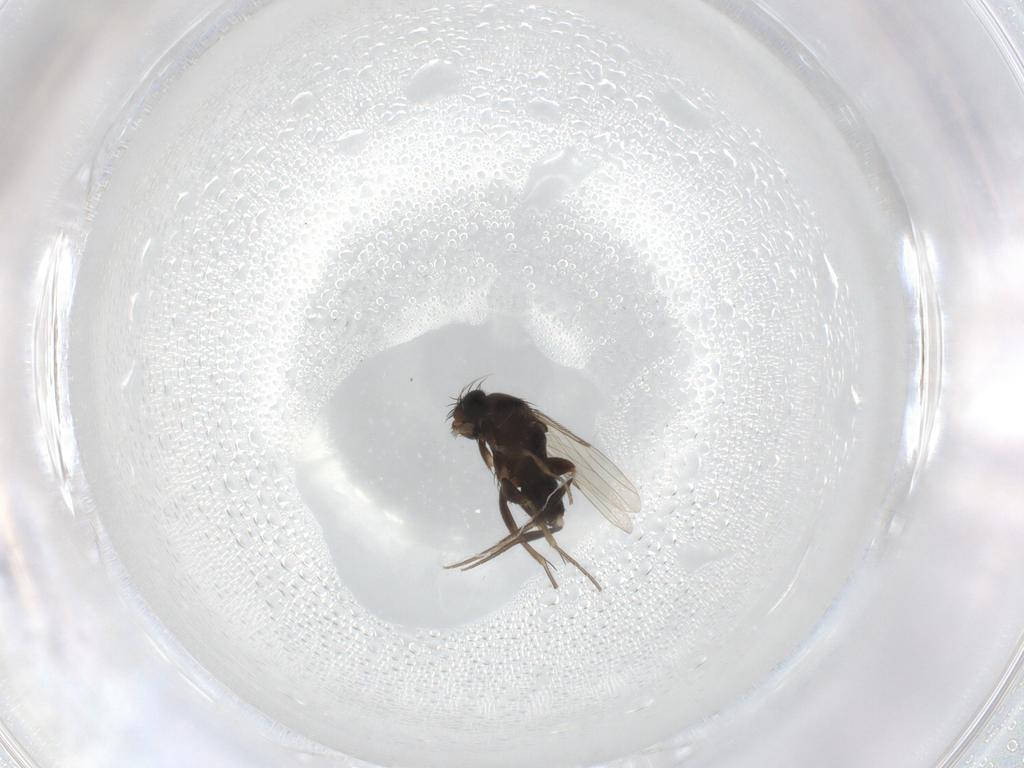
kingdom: Animalia
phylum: Arthropoda
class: Insecta
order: Diptera
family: Phoridae
